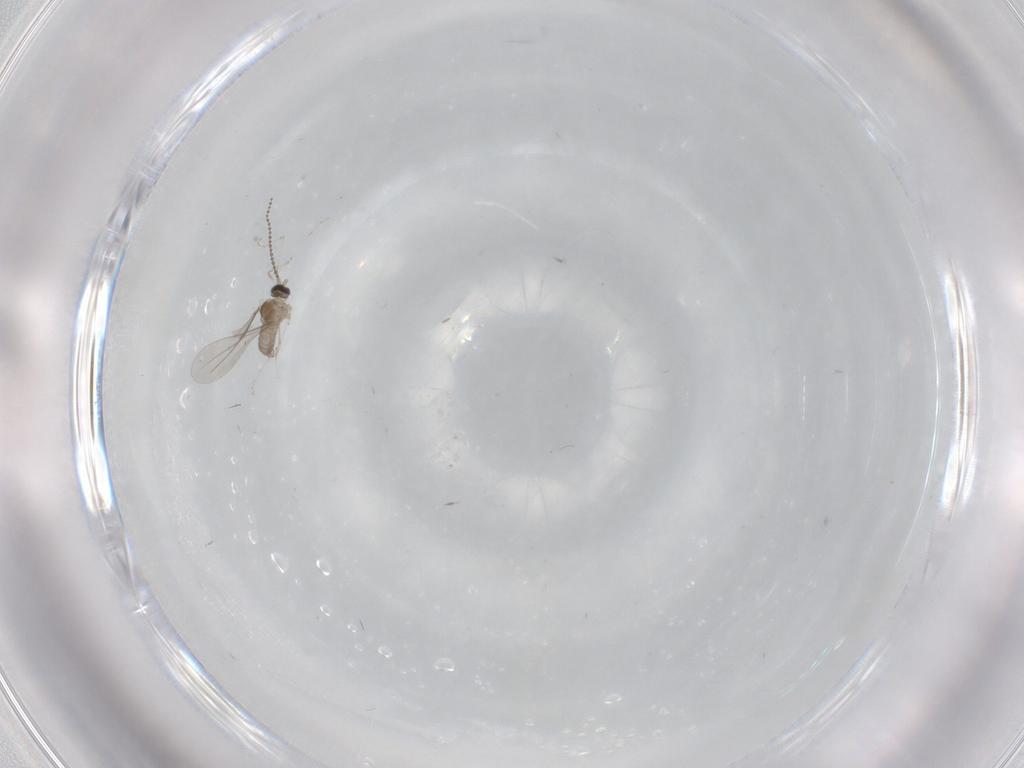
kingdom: Animalia
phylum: Arthropoda
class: Insecta
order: Diptera
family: Cecidomyiidae
